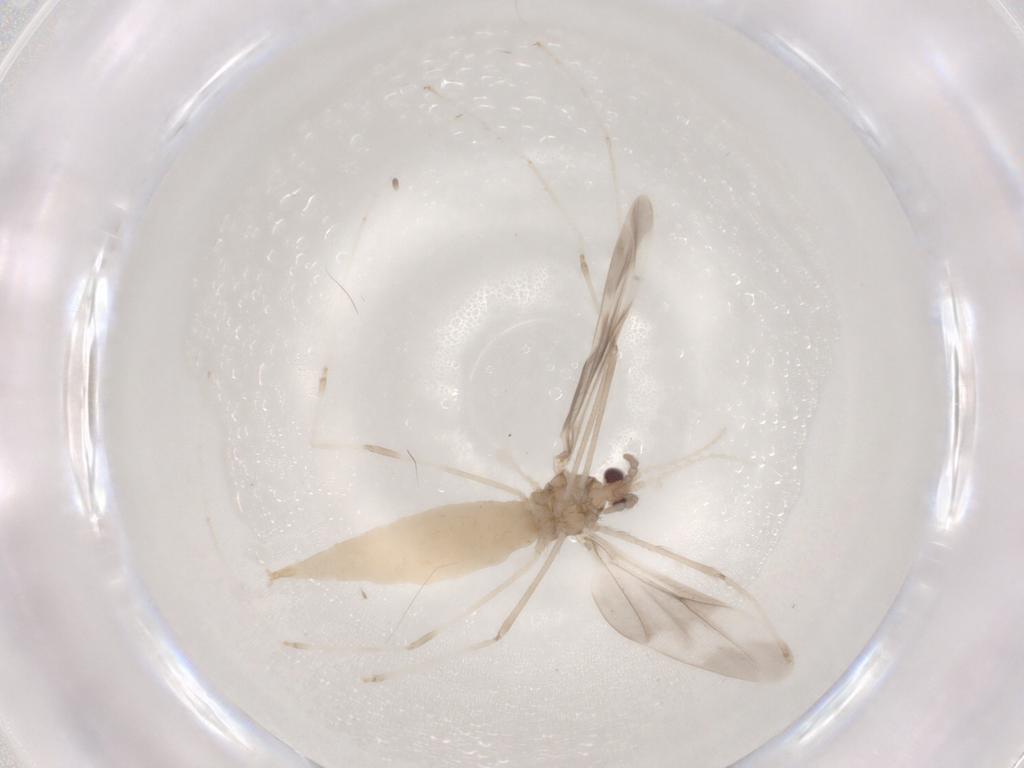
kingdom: Animalia
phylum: Arthropoda
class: Insecta
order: Diptera
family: Cecidomyiidae
